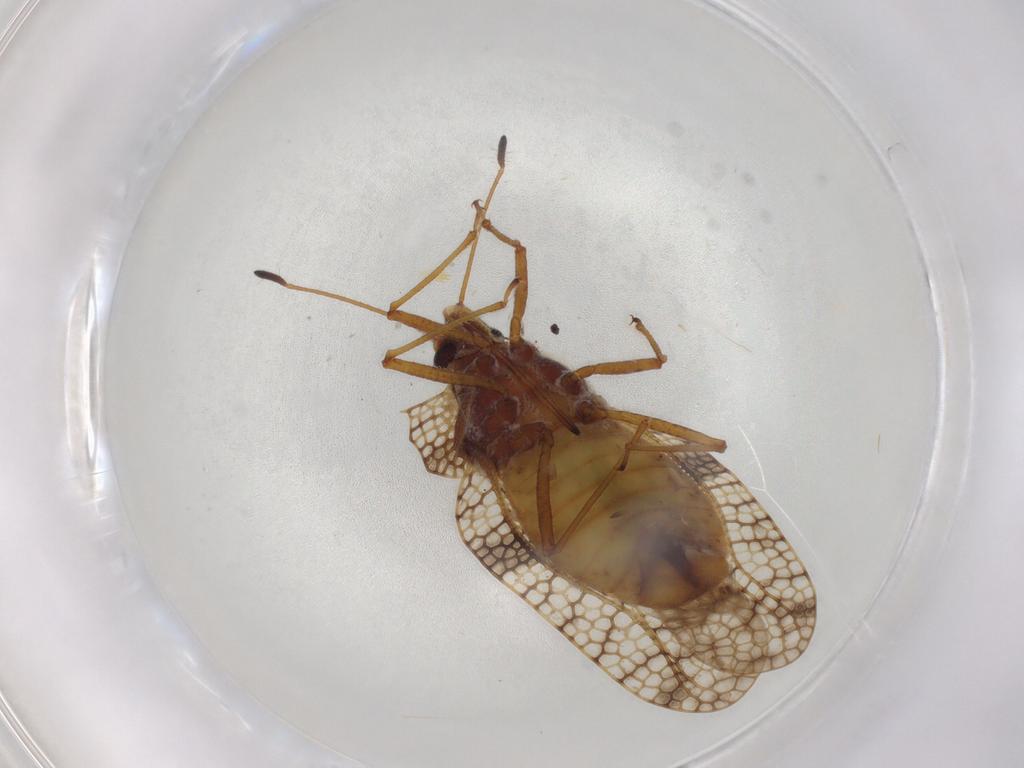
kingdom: Animalia
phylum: Arthropoda
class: Insecta
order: Hemiptera
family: Tingidae
